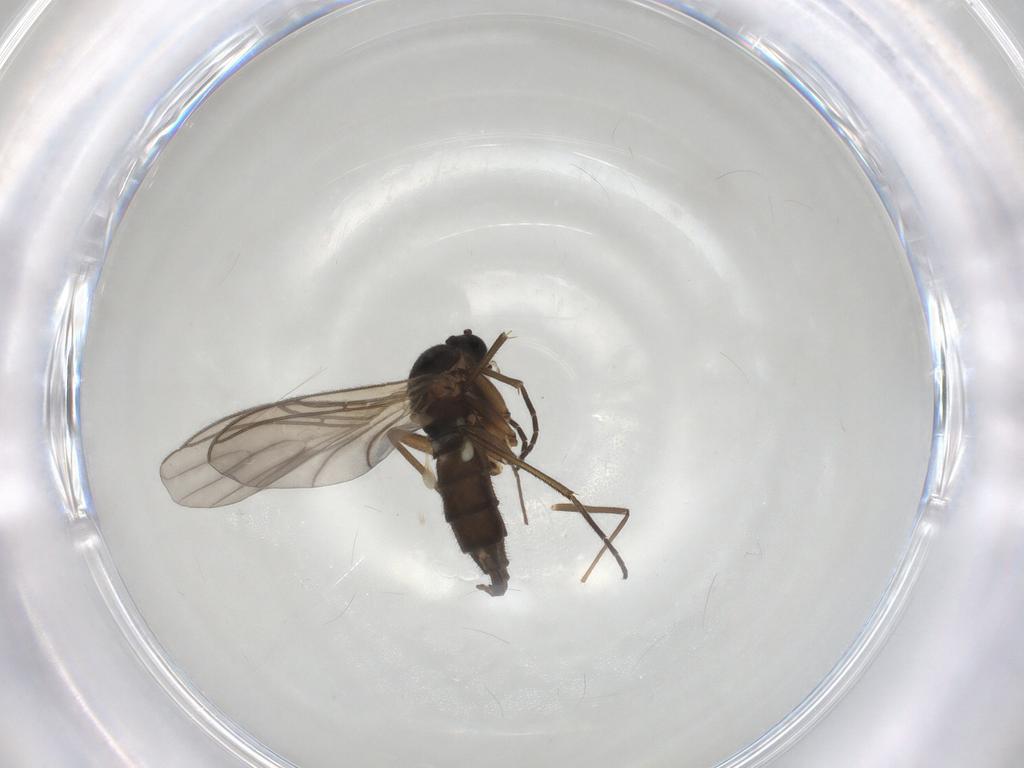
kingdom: Animalia
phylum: Arthropoda
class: Insecta
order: Diptera
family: Chironomidae
